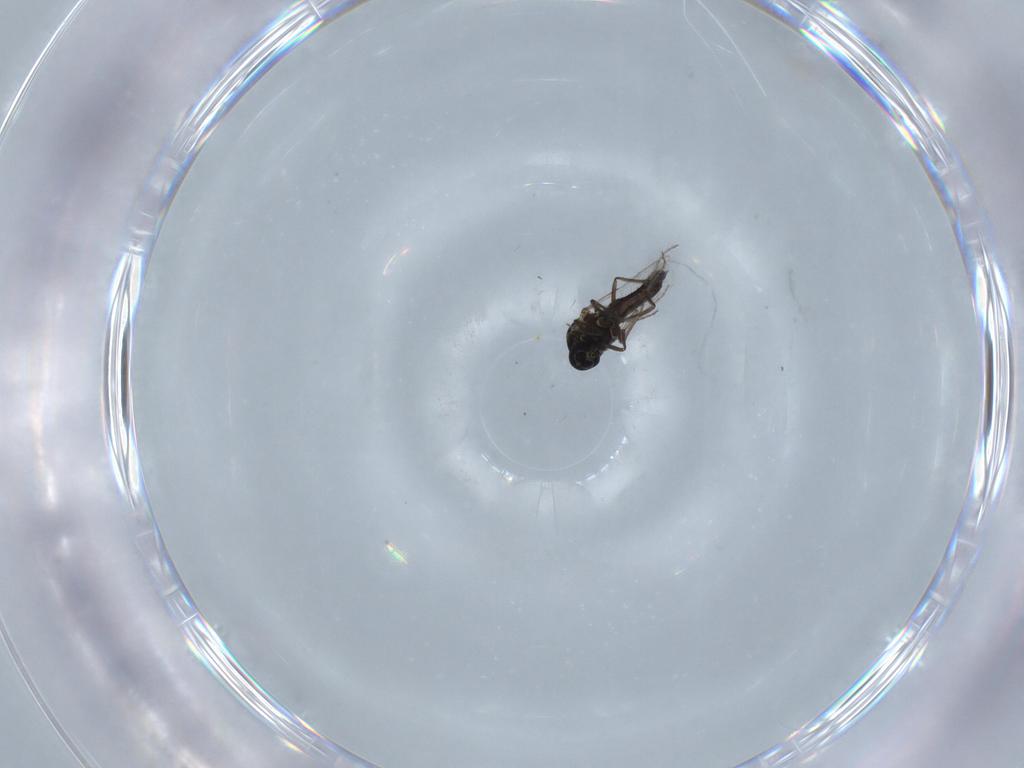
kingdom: Animalia
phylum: Arthropoda
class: Insecta
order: Diptera
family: Ceratopogonidae
